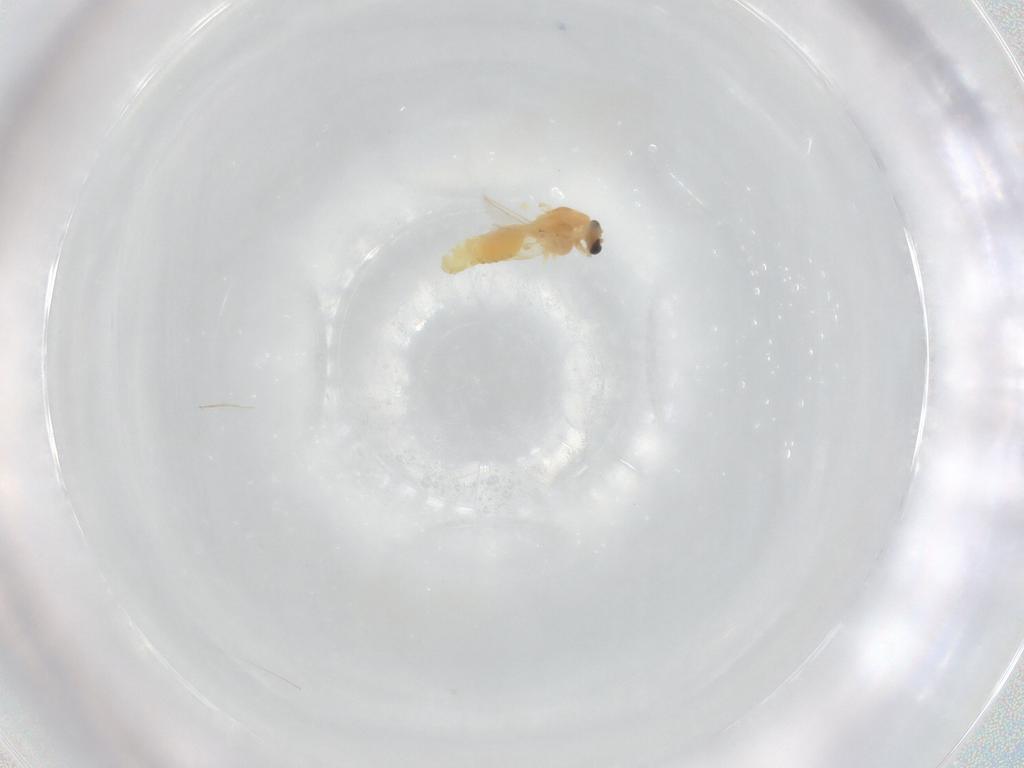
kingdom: Animalia
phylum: Arthropoda
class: Insecta
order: Diptera
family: Chironomidae
